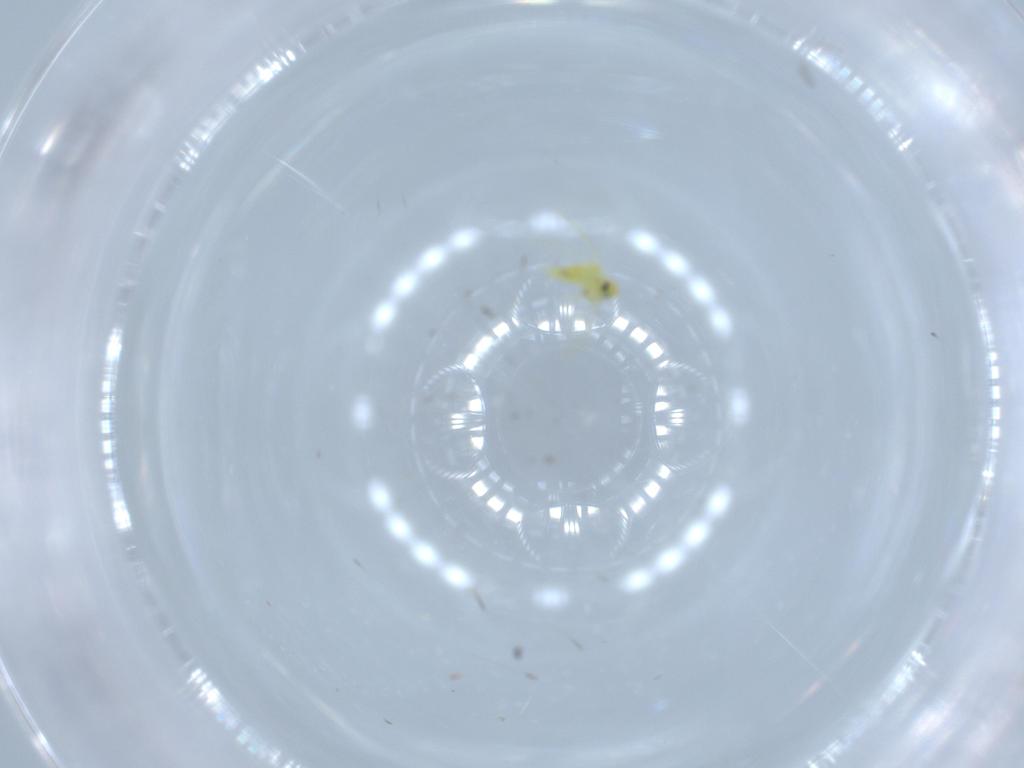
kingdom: Animalia
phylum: Arthropoda
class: Insecta
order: Hemiptera
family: Aleyrodidae
